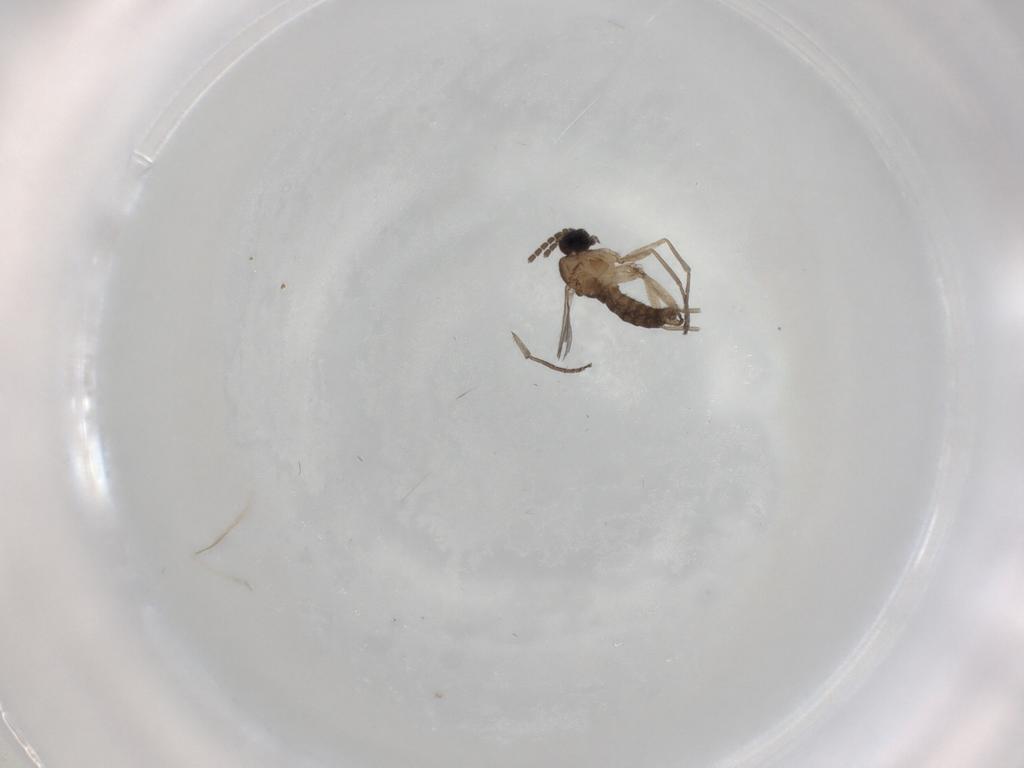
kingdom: Animalia
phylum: Arthropoda
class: Insecta
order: Diptera
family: Sciaridae
